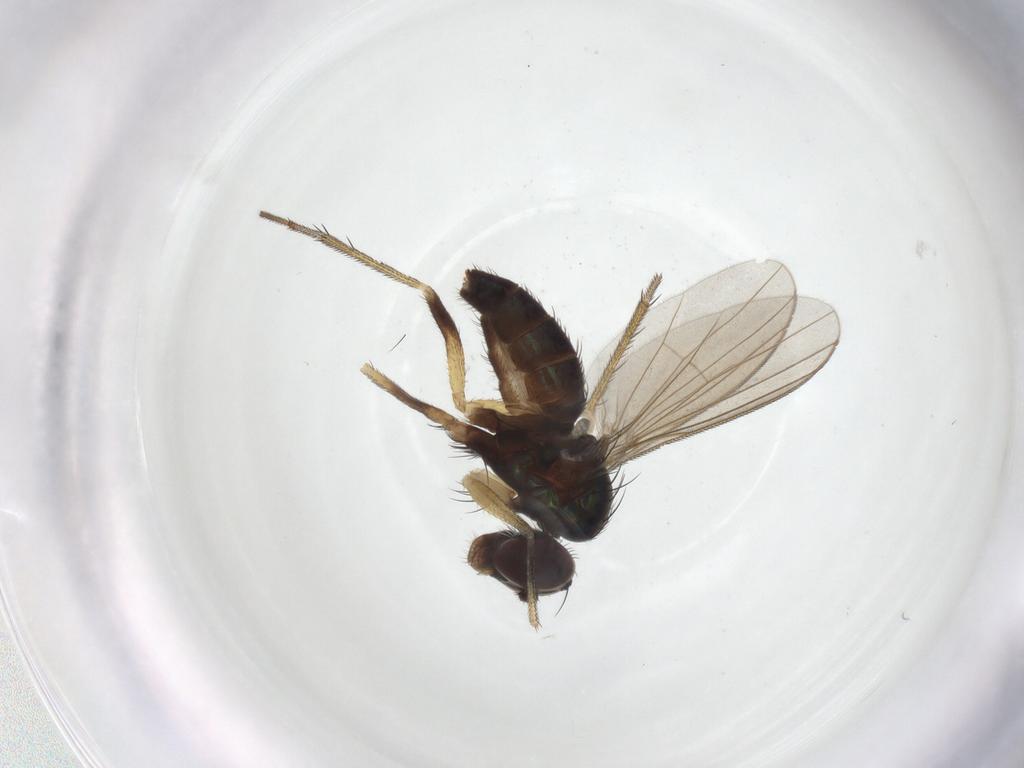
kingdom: Animalia
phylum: Arthropoda
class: Insecta
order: Diptera
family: Dolichopodidae
